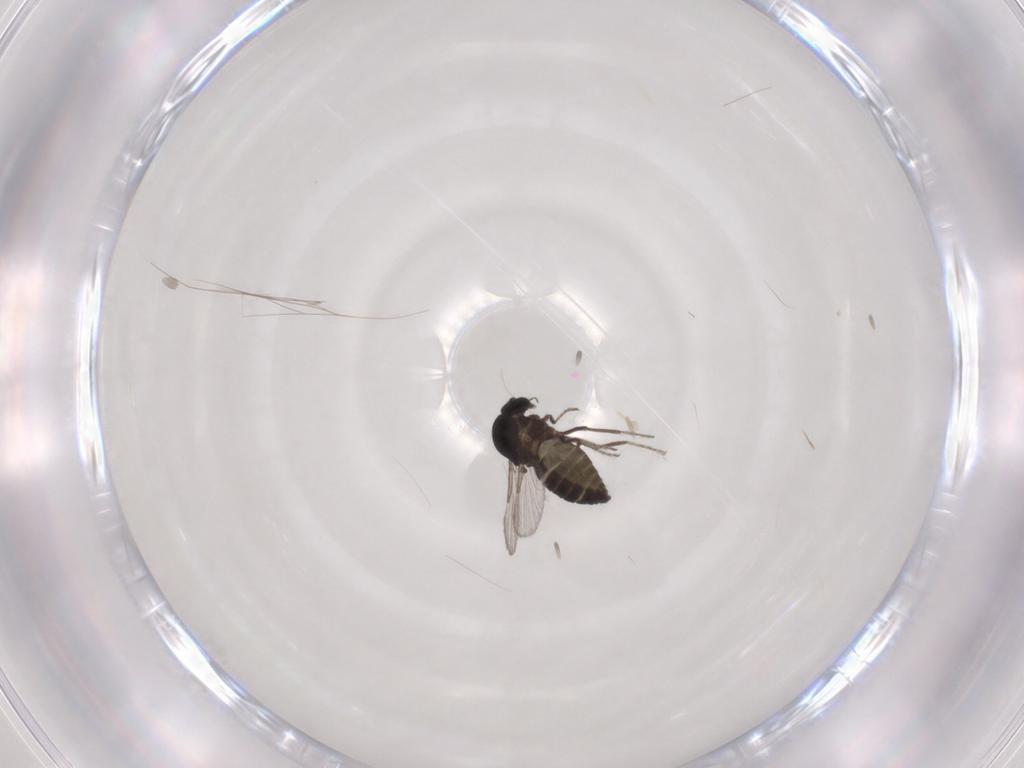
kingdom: Animalia
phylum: Arthropoda
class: Insecta
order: Diptera
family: Ceratopogonidae
